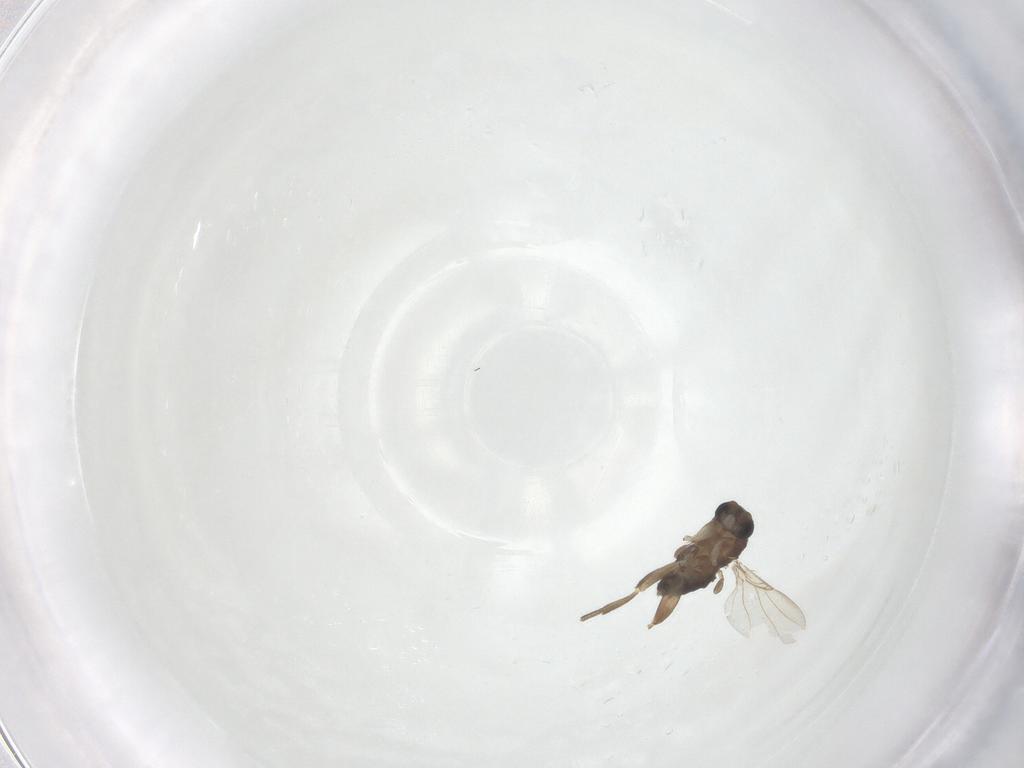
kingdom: Animalia
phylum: Arthropoda
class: Insecta
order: Diptera
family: Phoridae
